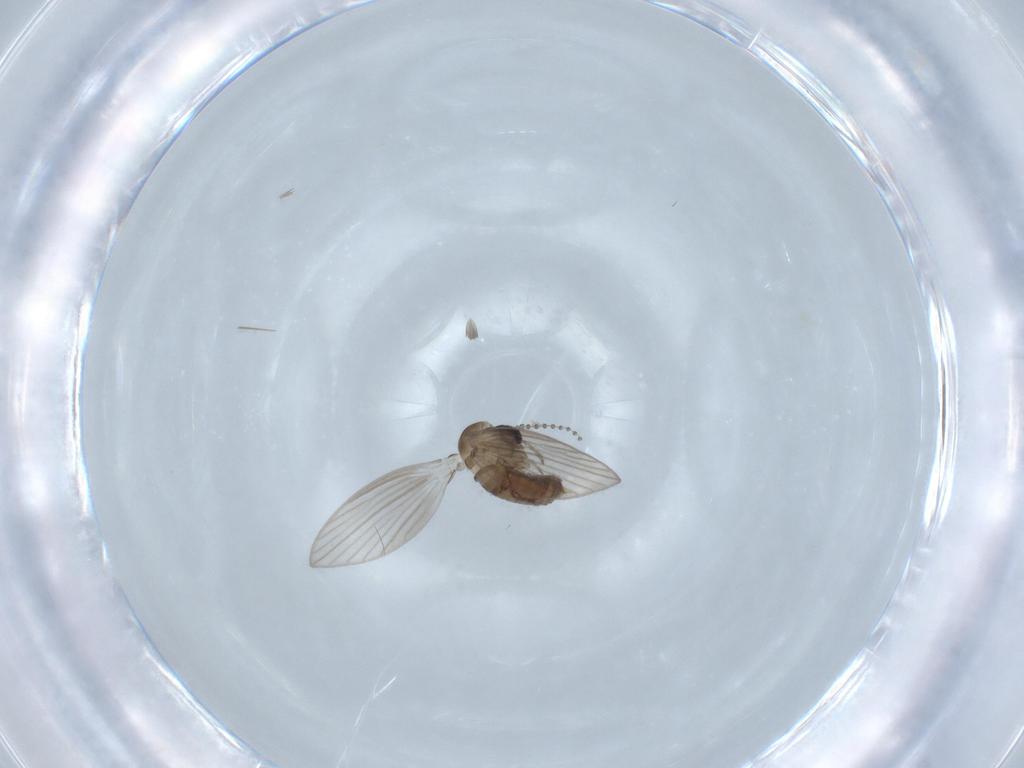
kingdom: Animalia
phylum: Arthropoda
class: Insecta
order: Diptera
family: Psychodidae
